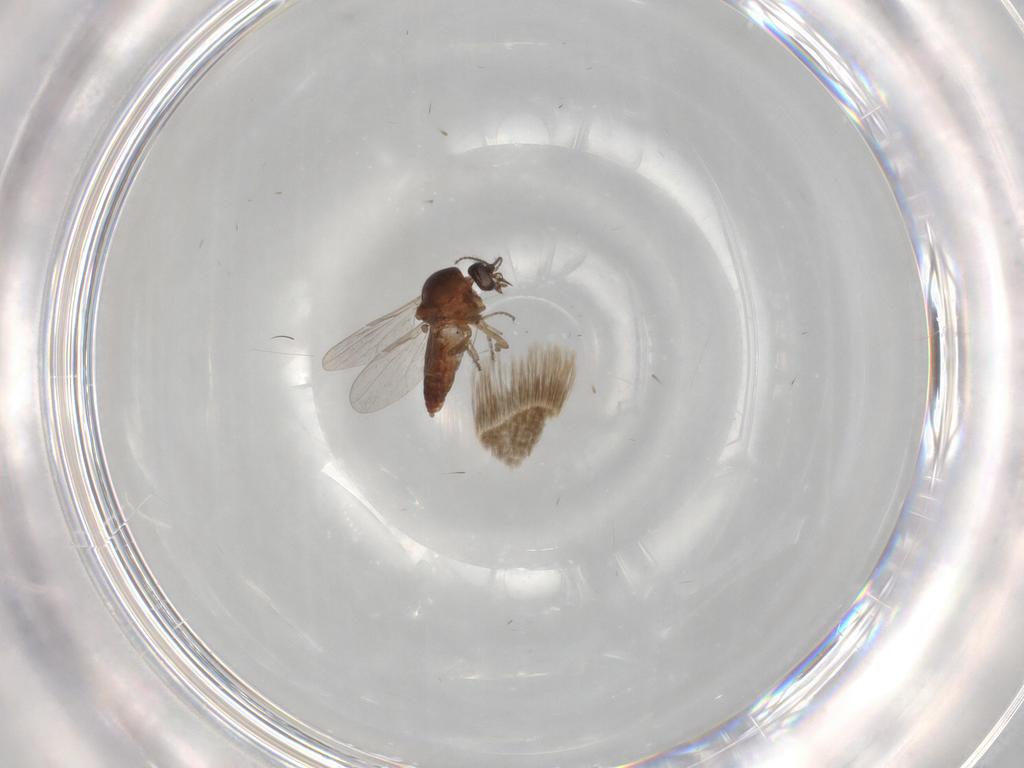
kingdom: Animalia
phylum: Arthropoda
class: Insecta
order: Diptera
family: Ceratopogonidae
